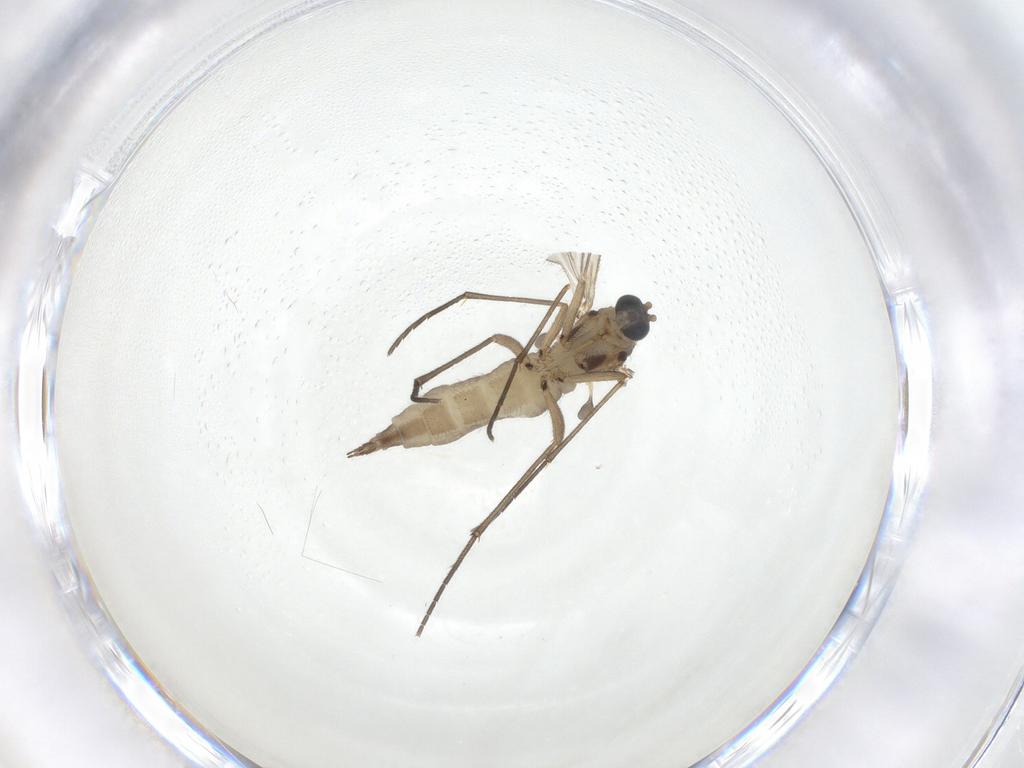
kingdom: Animalia
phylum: Arthropoda
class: Insecta
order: Diptera
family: Sciaridae
